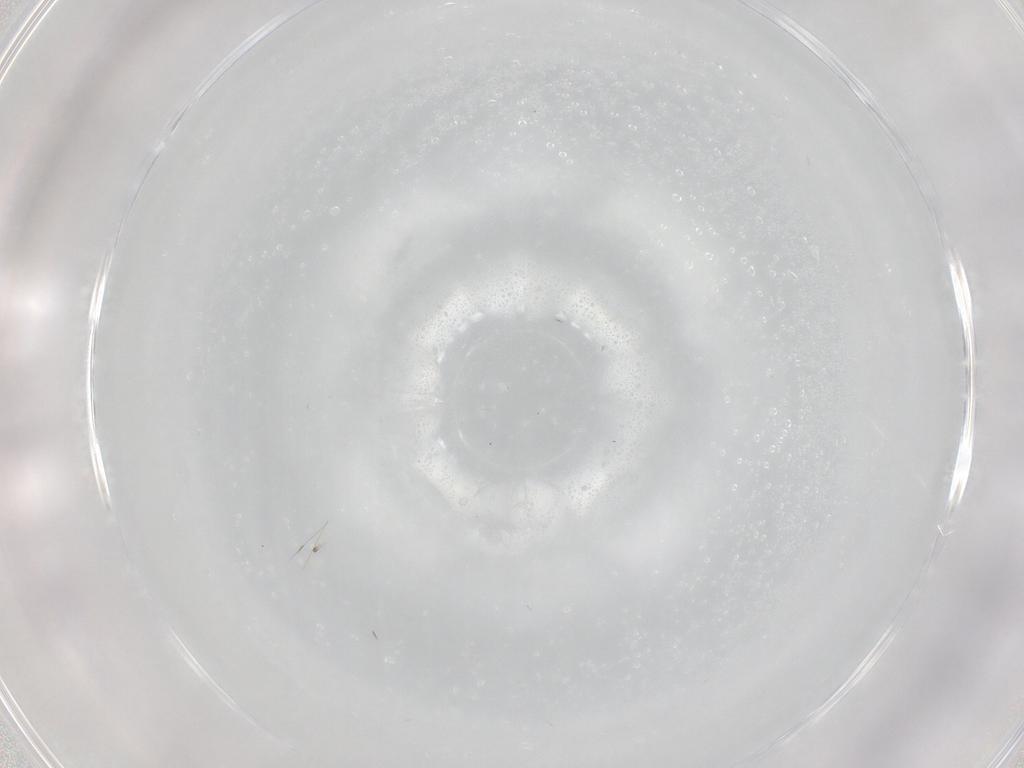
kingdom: Animalia
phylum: Arthropoda
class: Insecta
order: Diptera
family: Phoridae
